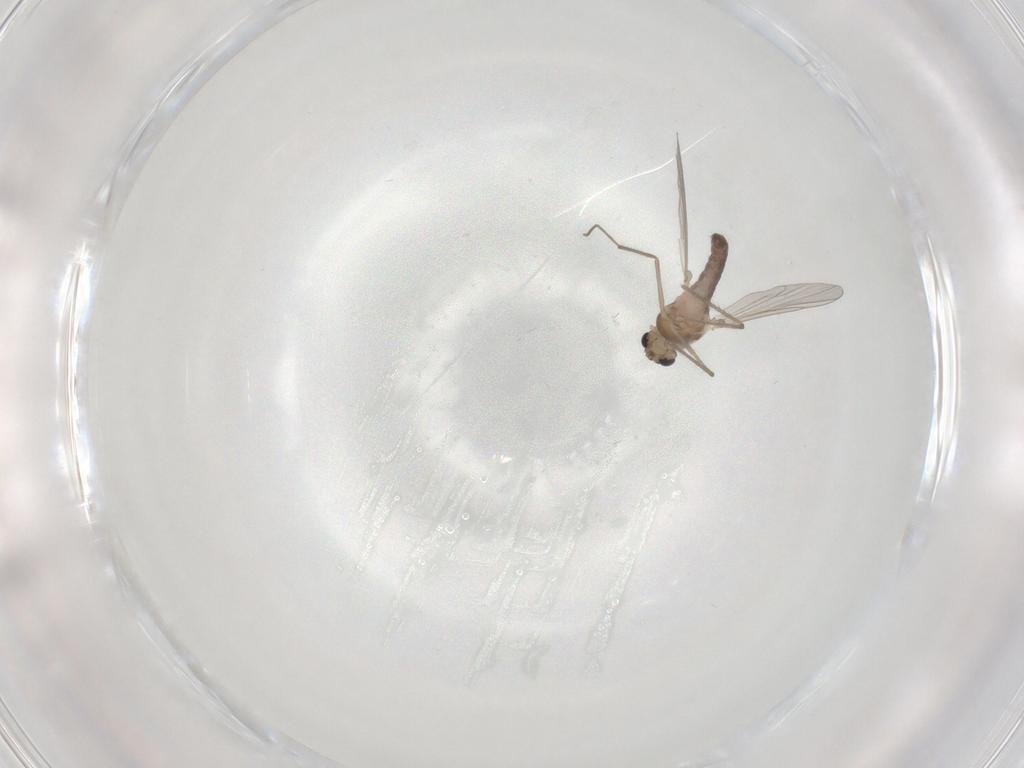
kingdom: Animalia
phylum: Arthropoda
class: Insecta
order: Diptera
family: Chironomidae
